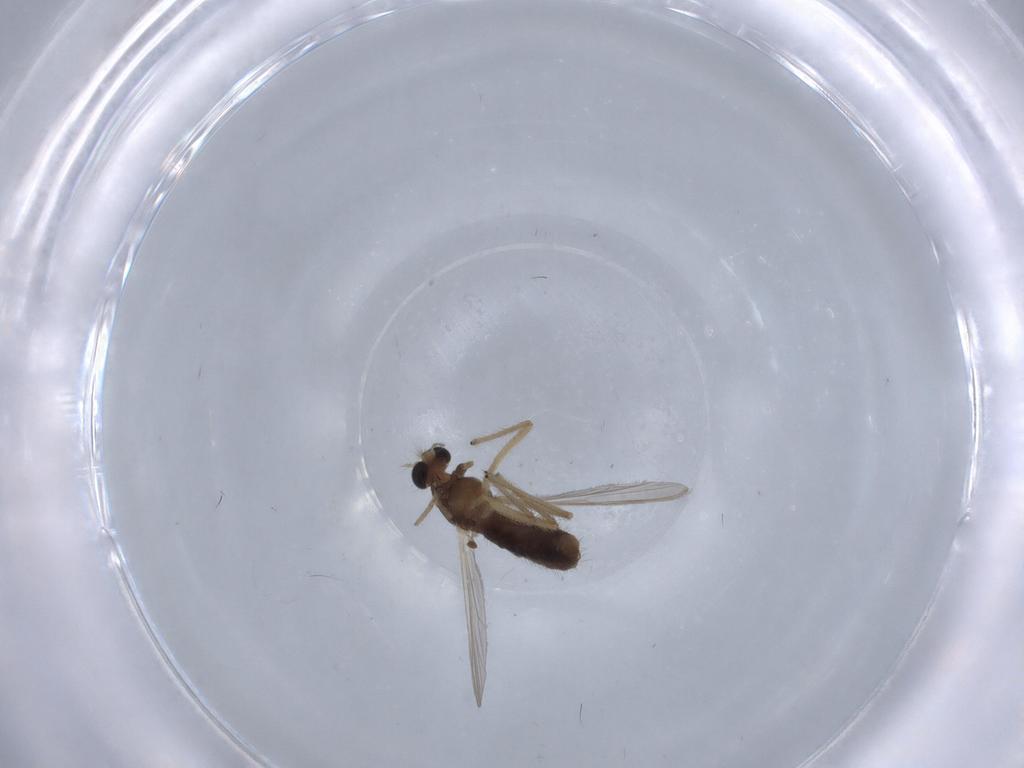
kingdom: Animalia
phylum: Arthropoda
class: Insecta
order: Diptera
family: Chironomidae
